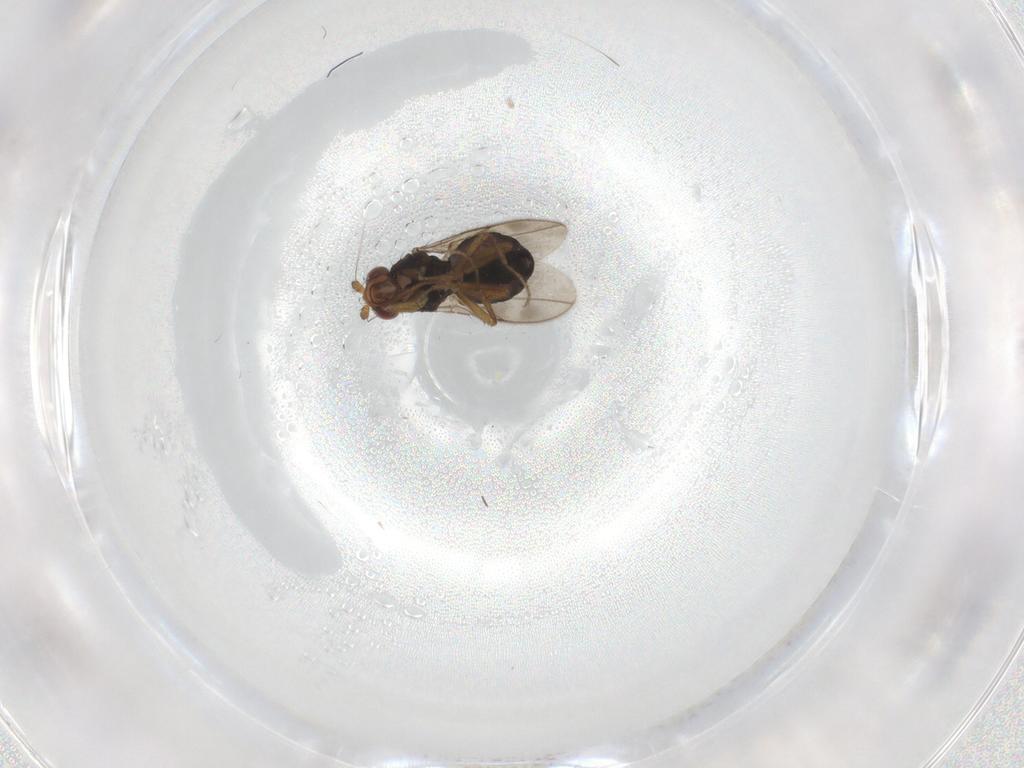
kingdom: Animalia
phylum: Arthropoda
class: Insecta
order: Diptera
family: Sphaeroceridae
